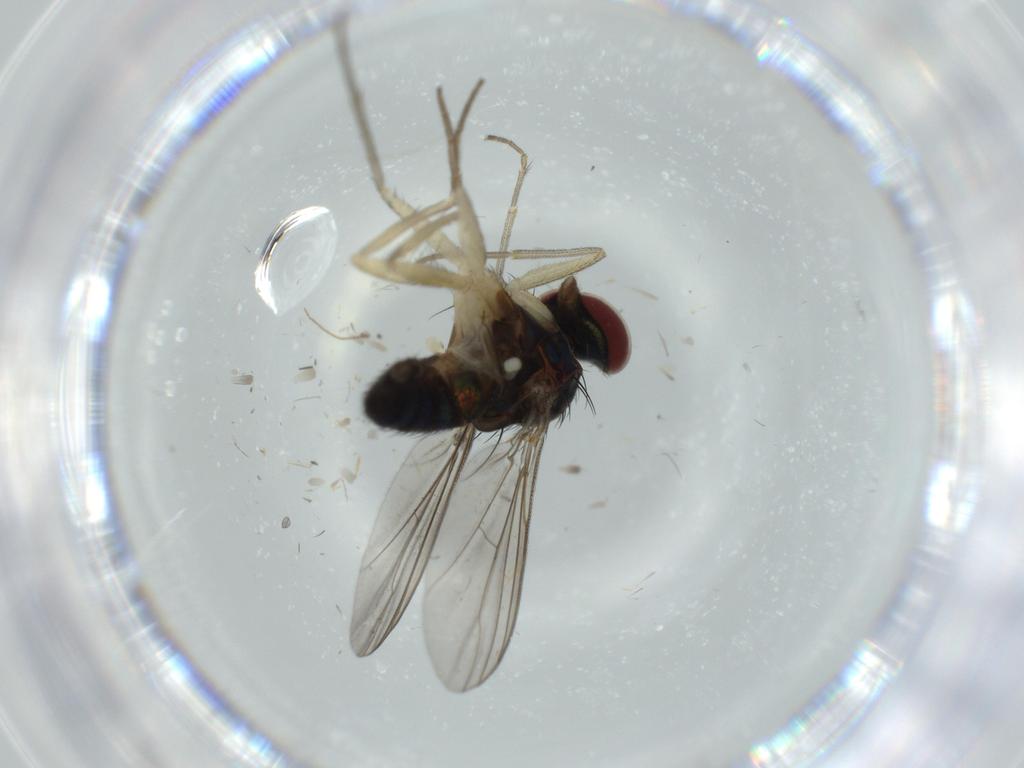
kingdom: Animalia
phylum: Arthropoda
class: Insecta
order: Diptera
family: Dolichopodidae
